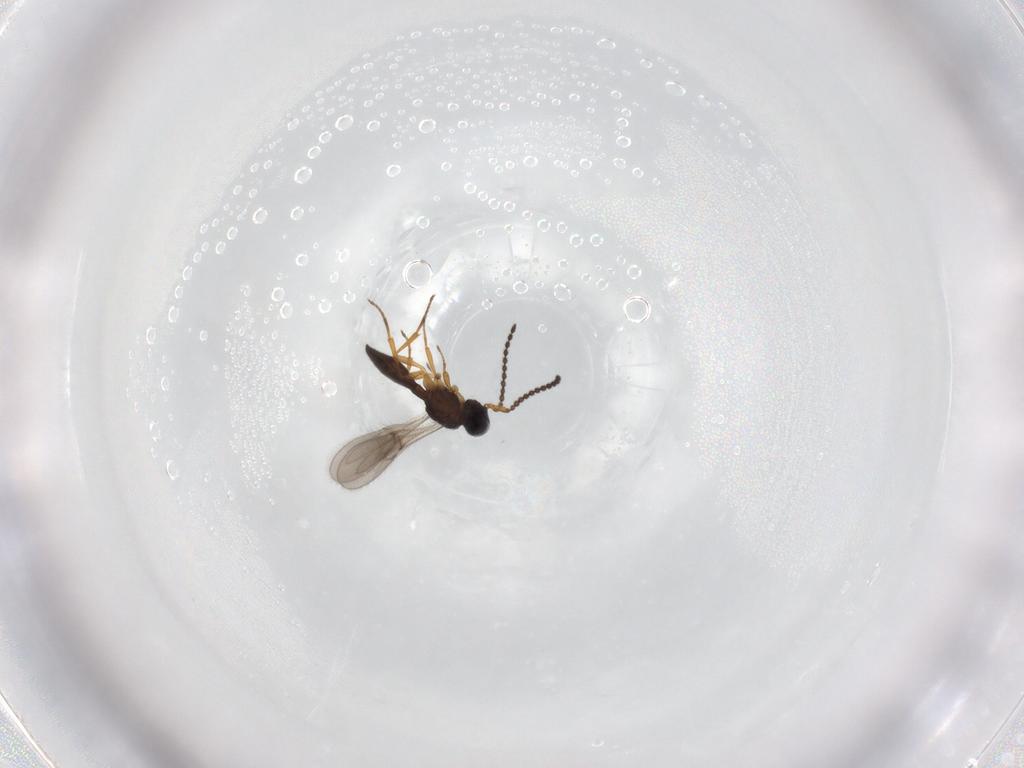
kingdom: Animalia
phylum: Arthropoda
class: Insecta
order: Hymenoptera
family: Scelionidae
